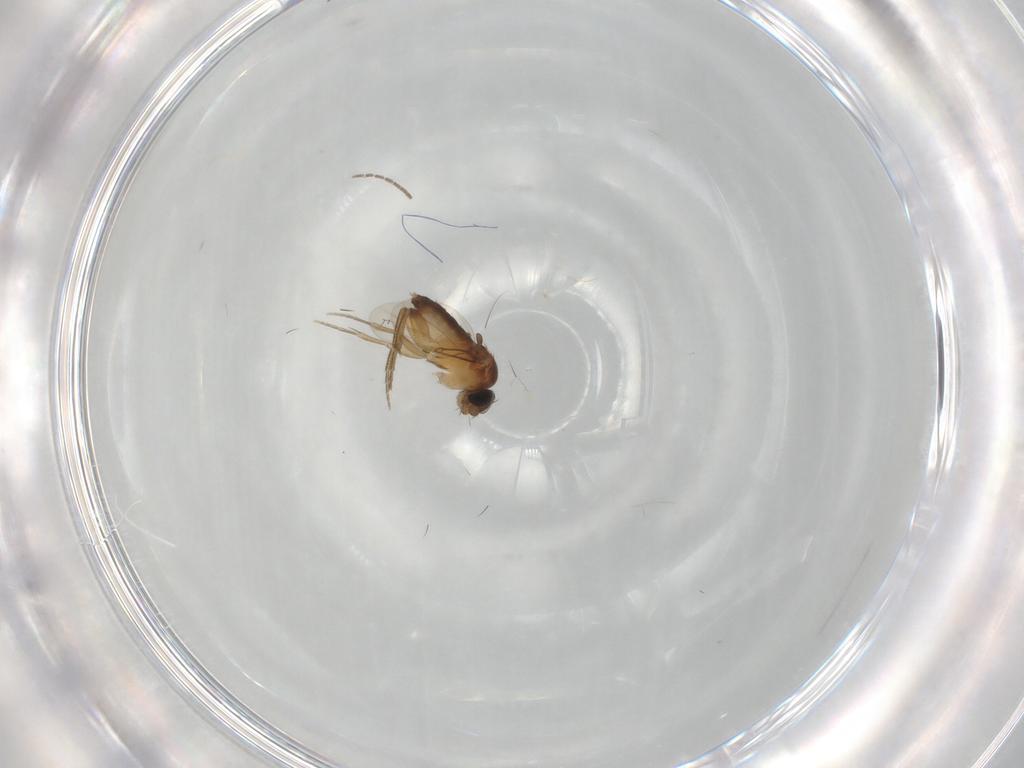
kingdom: Animalia
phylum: Arthropoda
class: Insecta
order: Diptera
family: Sciaridae
